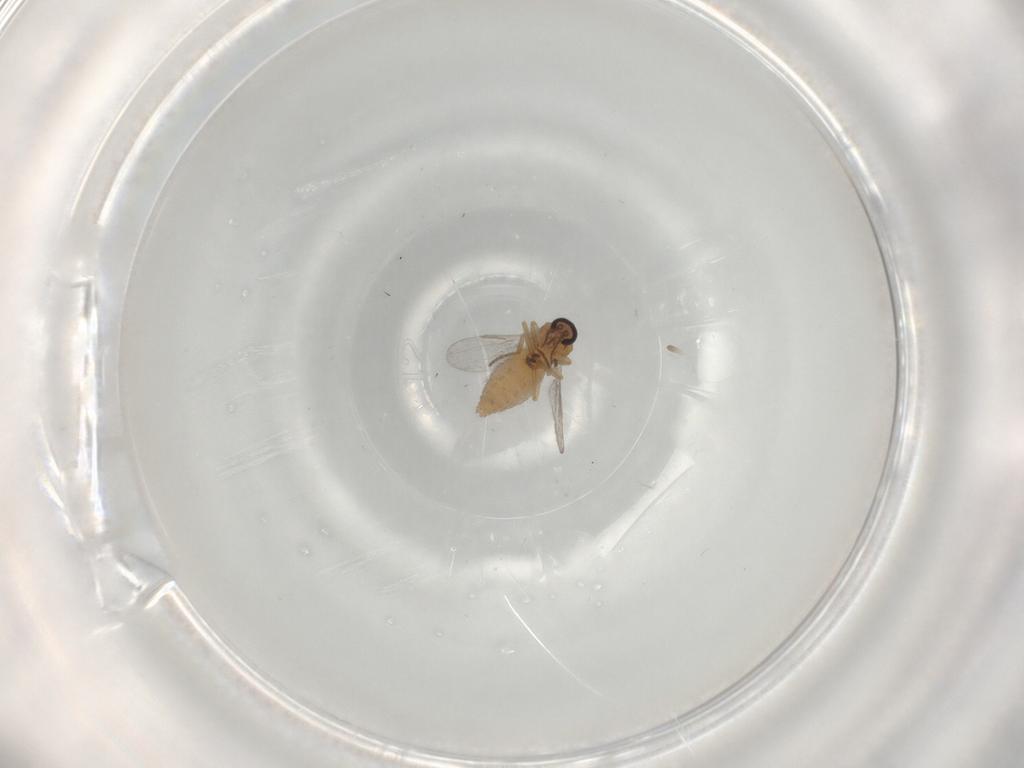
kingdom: Animalia
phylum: Arthropoda
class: Insecta
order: Diptera
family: Ceratopogonidae
